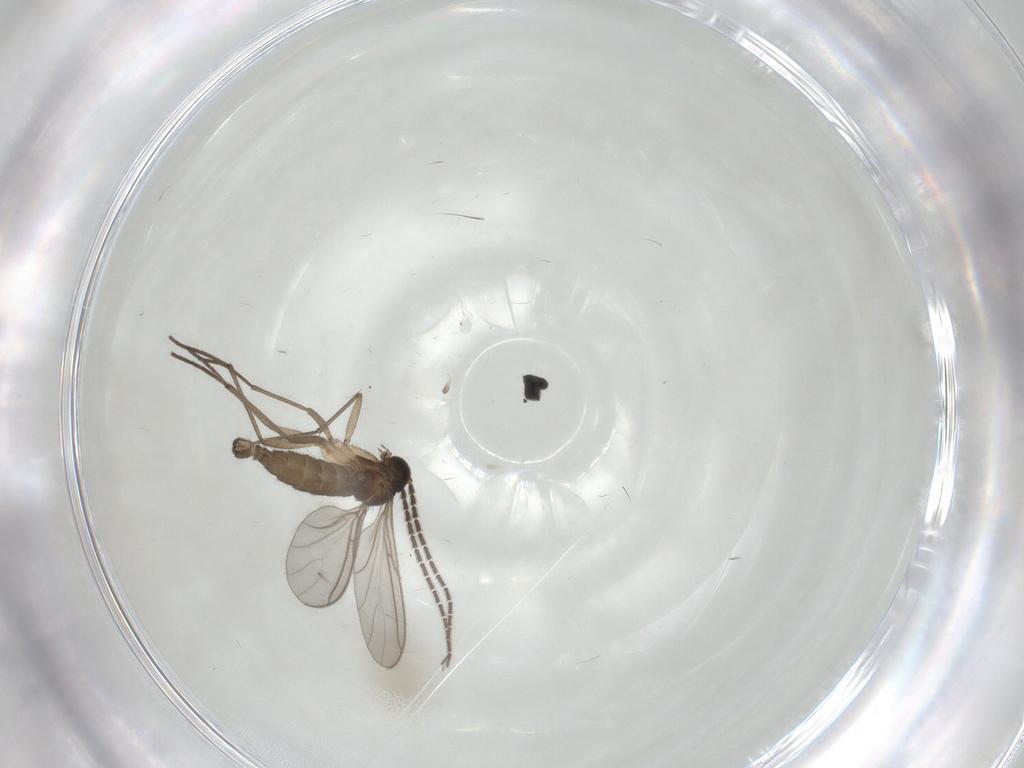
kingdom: Animalia
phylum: Arthropoda
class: Insecta
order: Diptera
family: Sciaridae
